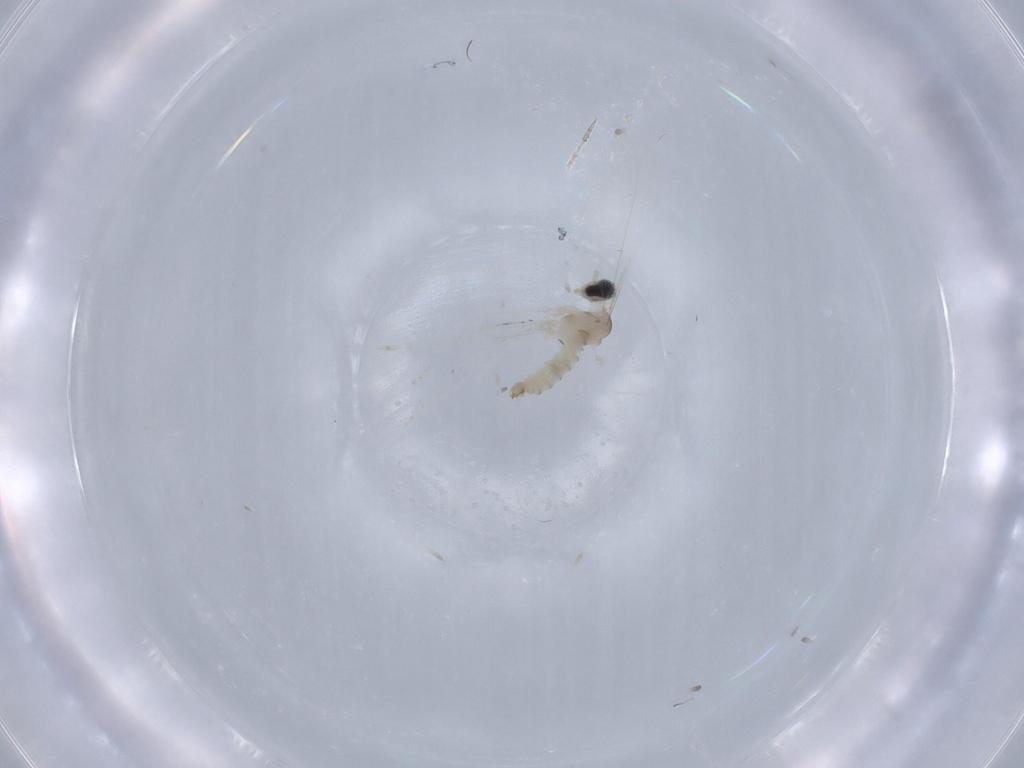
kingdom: Animalia
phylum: Arthropoda
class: Insecta
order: Diptera
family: Cecidomyiidae
